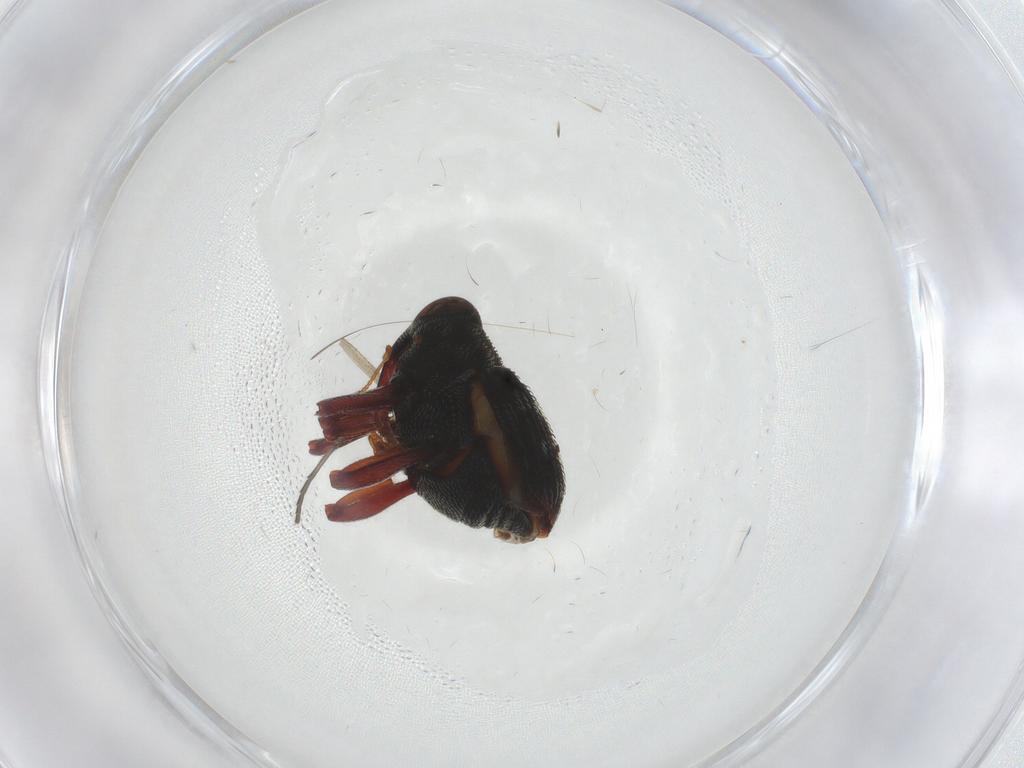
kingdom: Animalia
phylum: Arthropoda
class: Insecta
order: Coleoptera
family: Curculionidae
